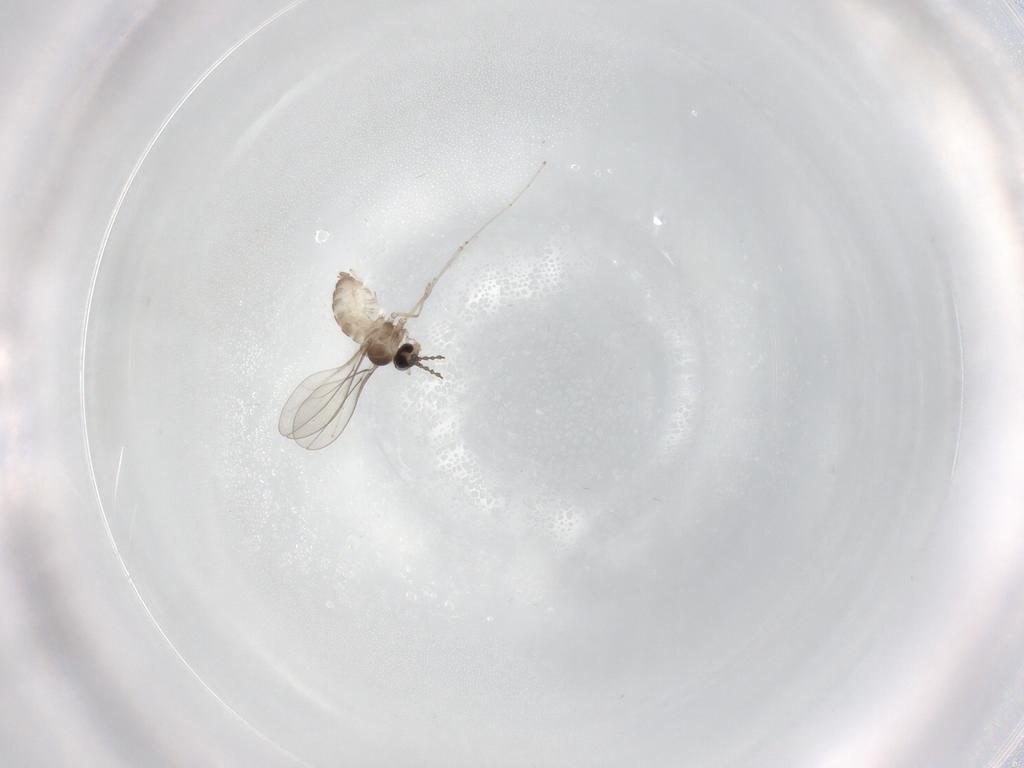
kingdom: Animalia
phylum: Arthropoda
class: Insecta
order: Diptera
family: Cecidomyiidae
